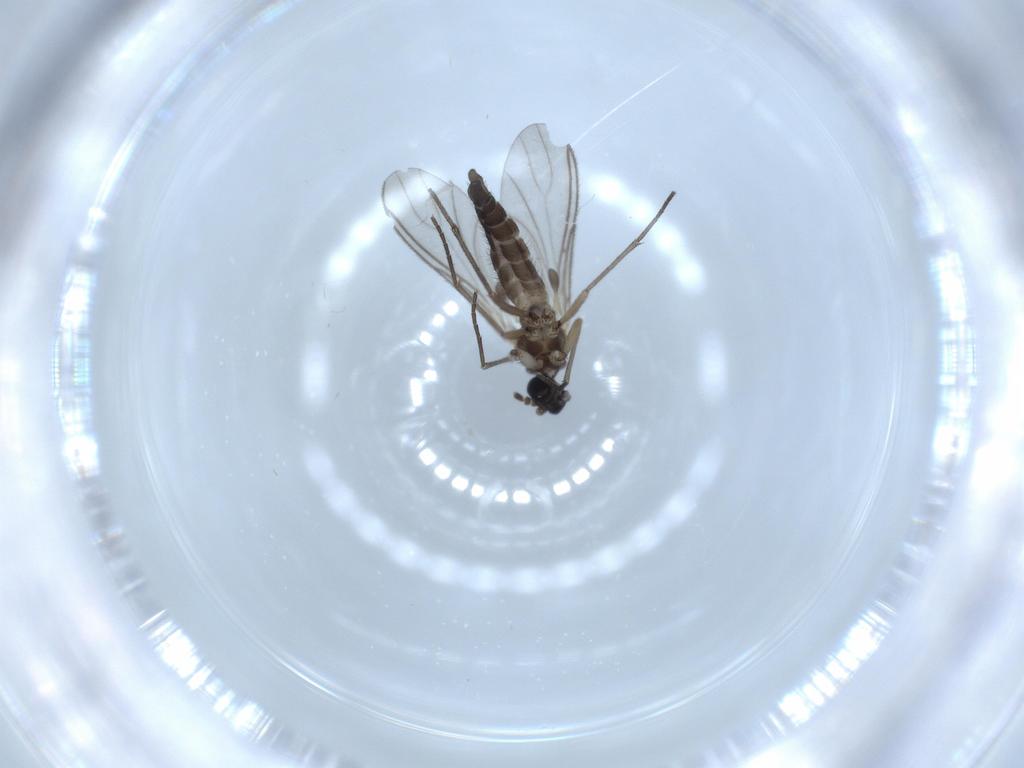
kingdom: Animalia
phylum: Arthropoda
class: Insecta
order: Diptera
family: Sciaridae
